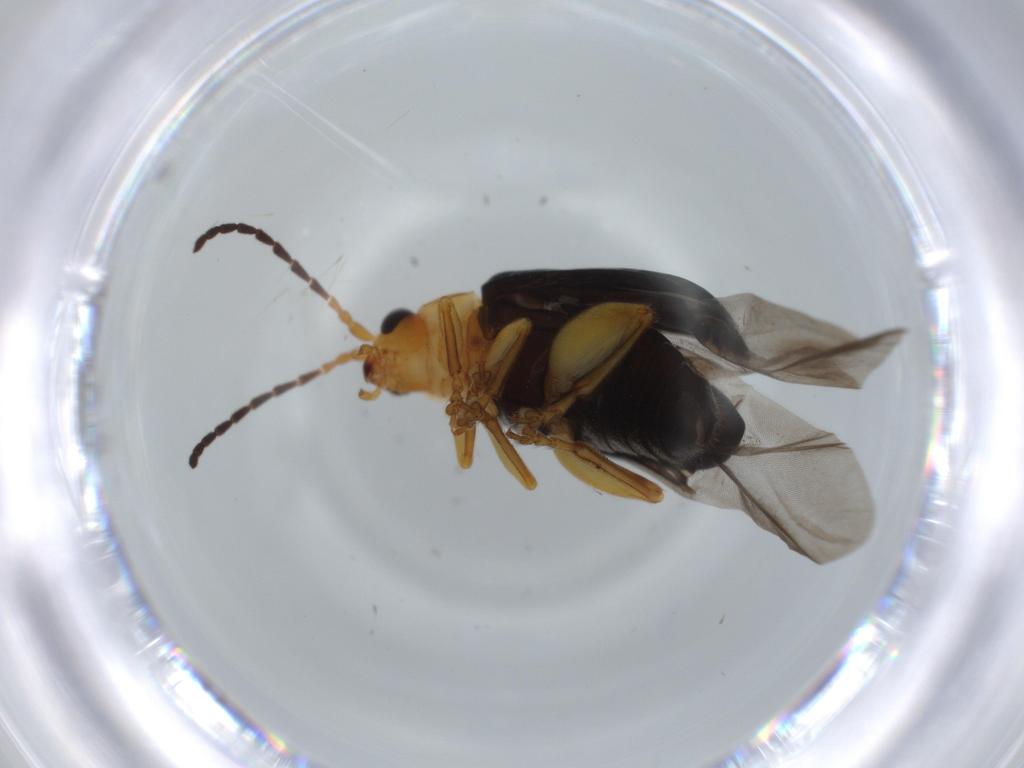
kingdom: Animalia
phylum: Arthropoda
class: Insecta
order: Coleoptera
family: Chrysomelidae
